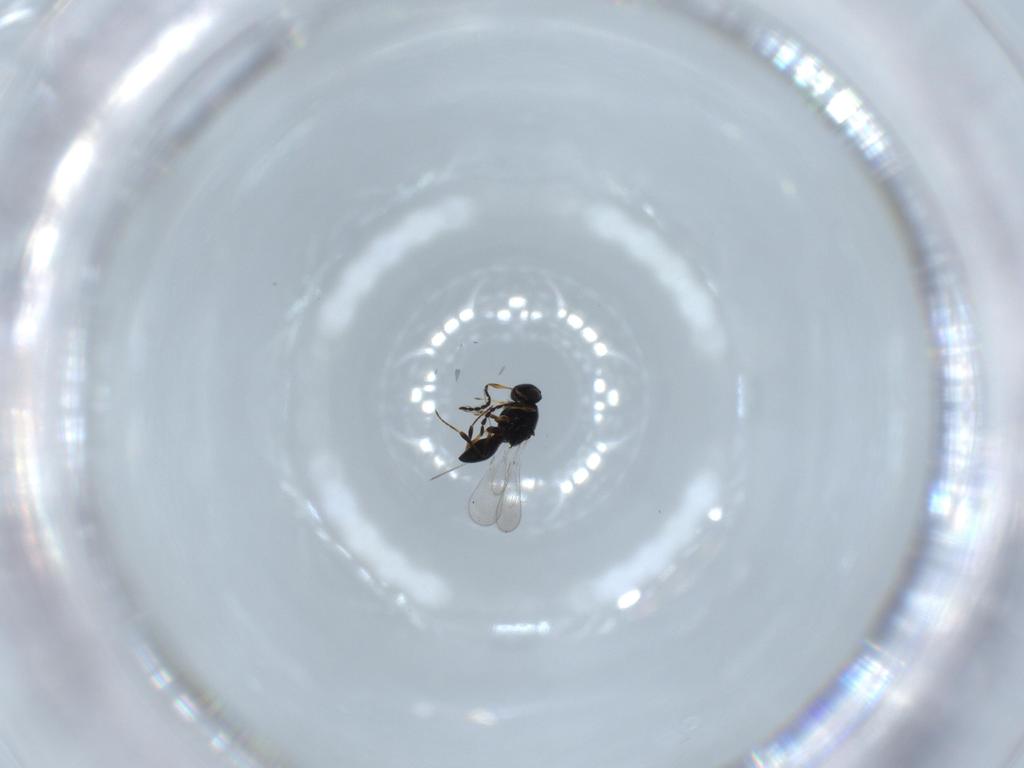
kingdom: Animalia
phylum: Arthropoda
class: Insecta
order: Hymenoptera
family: Platygastridae
